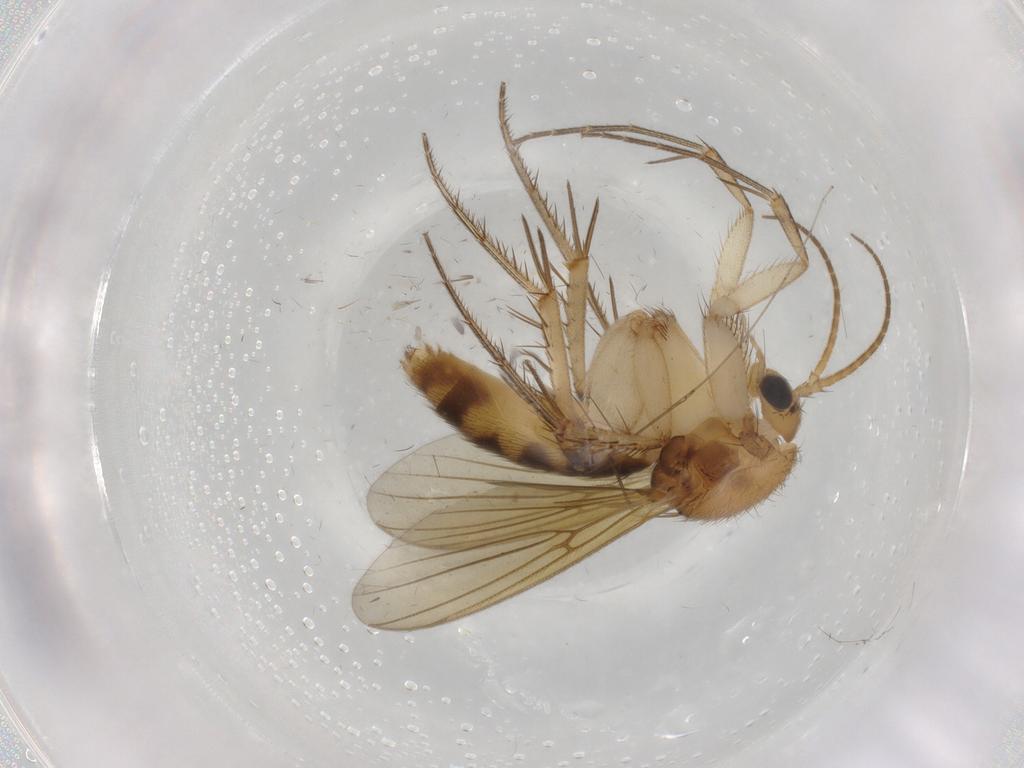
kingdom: Animalia
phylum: Arthropoda
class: Insecta
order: Diptera
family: Mycetophilidae
